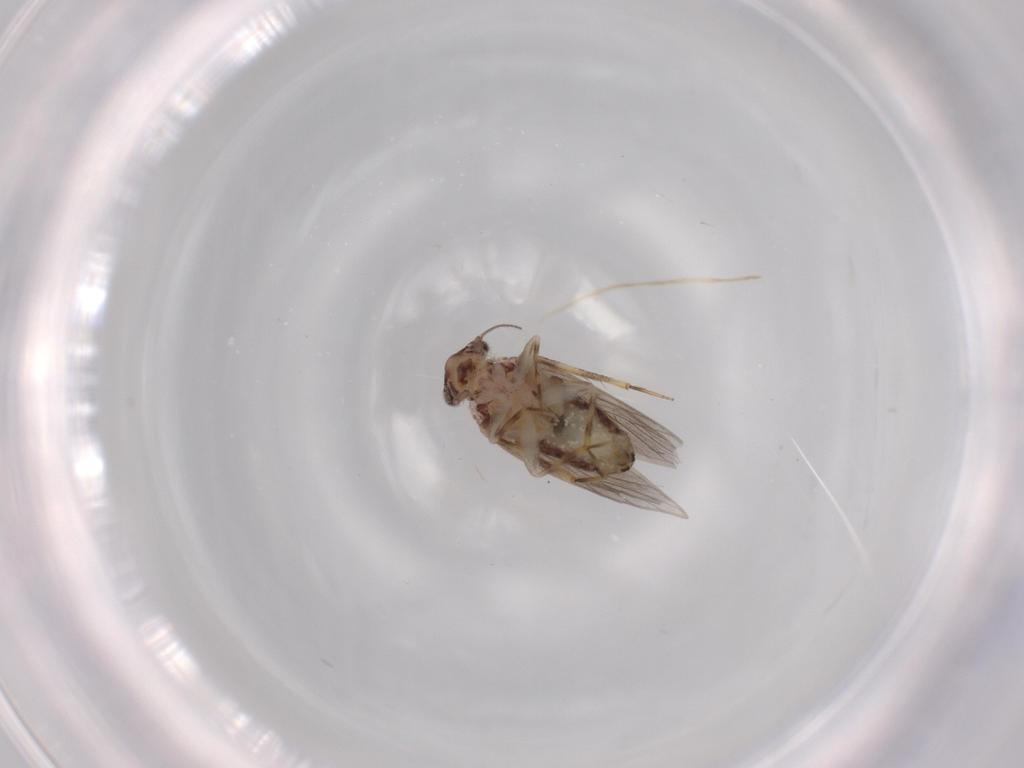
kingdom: Animalia
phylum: Arthropoda
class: Insecta
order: Psocodea
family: Lepidopsocidae
